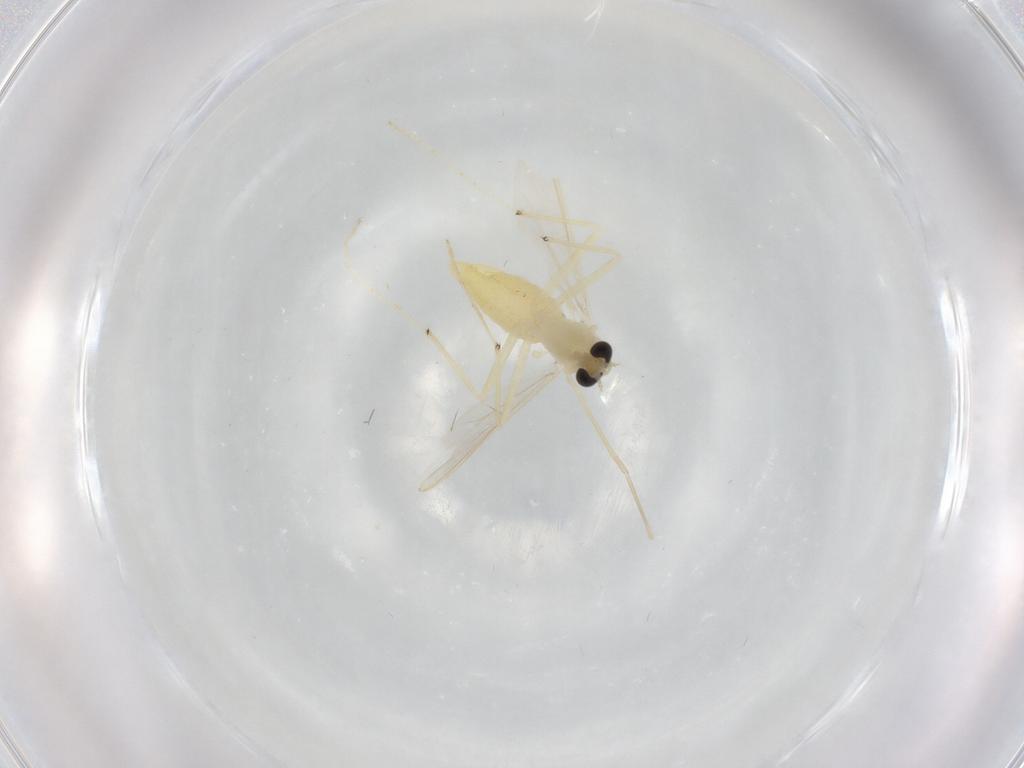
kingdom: Animalia
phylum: Arthropoda
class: Insecta
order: Diptera
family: Chironomidae
